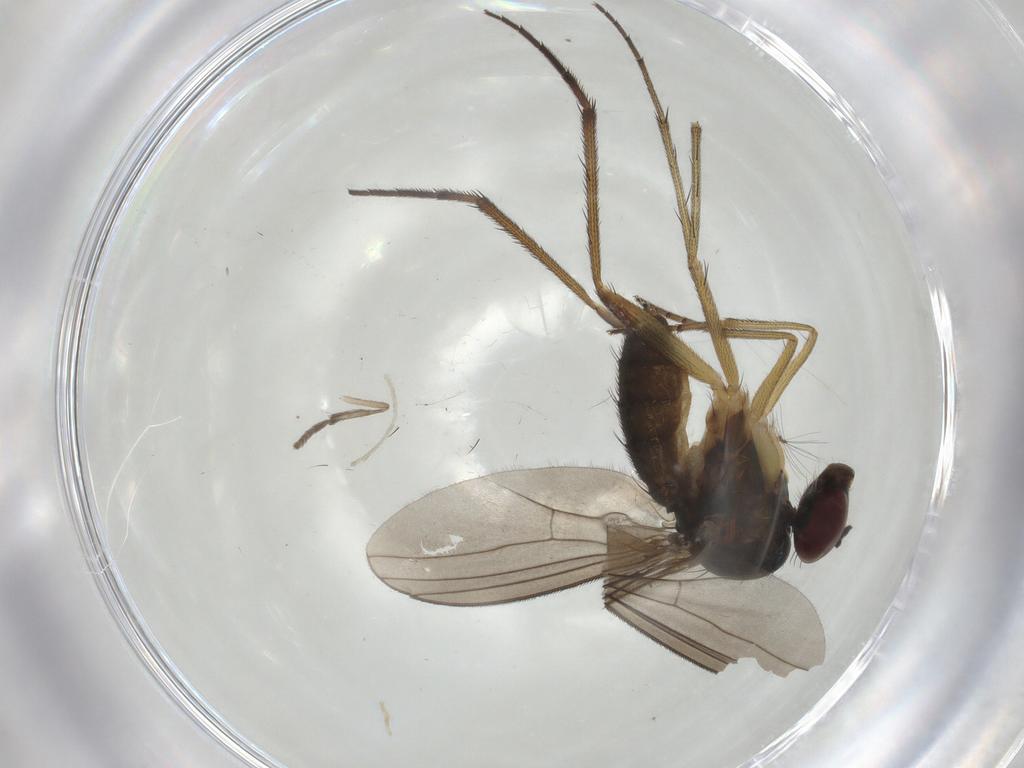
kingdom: Animalia
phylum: Arthropoda
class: Insecta
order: Diptera
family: Dolichopodidae
